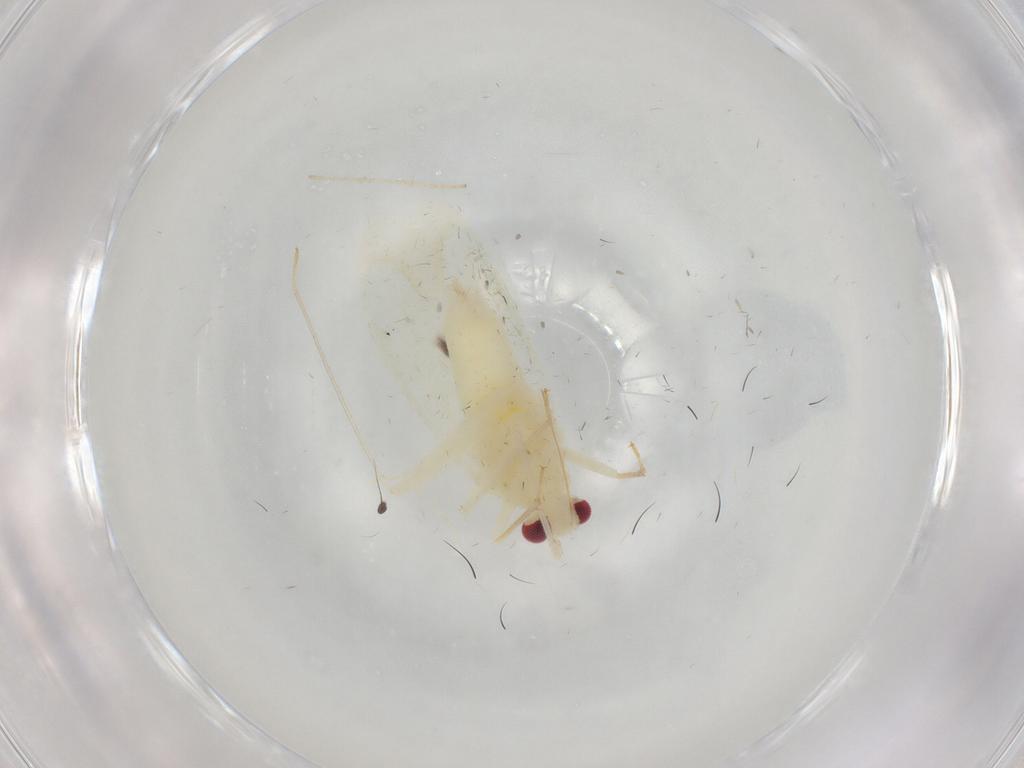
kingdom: Animalia
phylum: Arthropoda
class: Insecta
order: Hemiptera
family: Miridae
